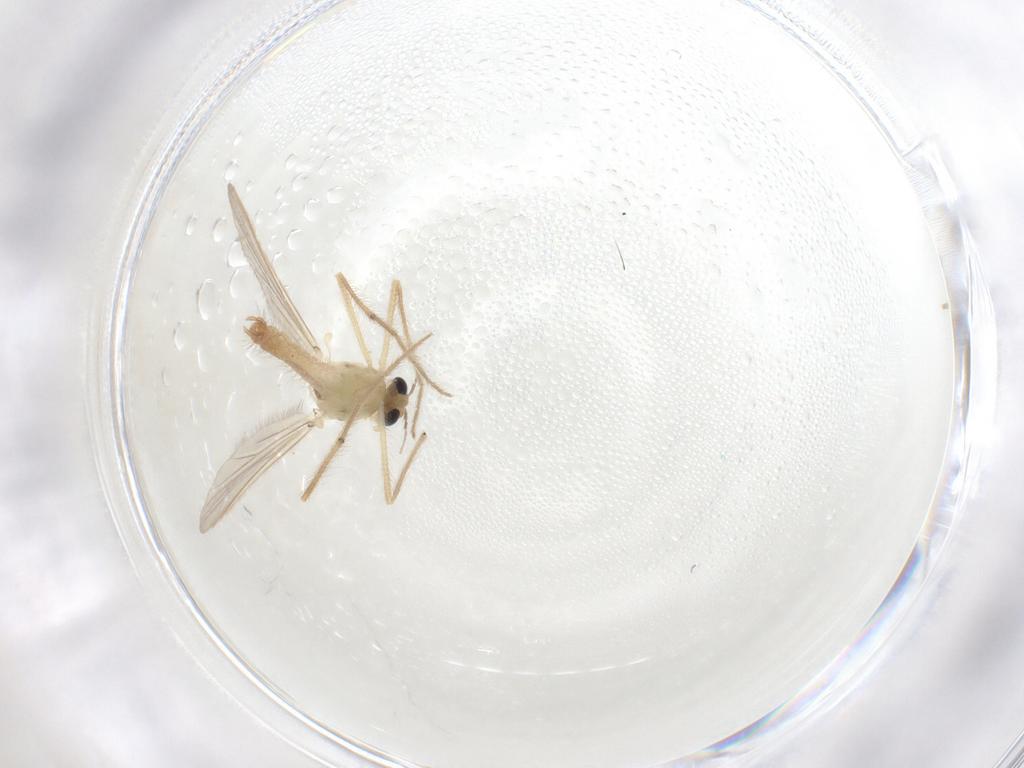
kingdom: Animalia
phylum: Arthropoda
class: Insecta
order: Diptera
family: Chironomidae
